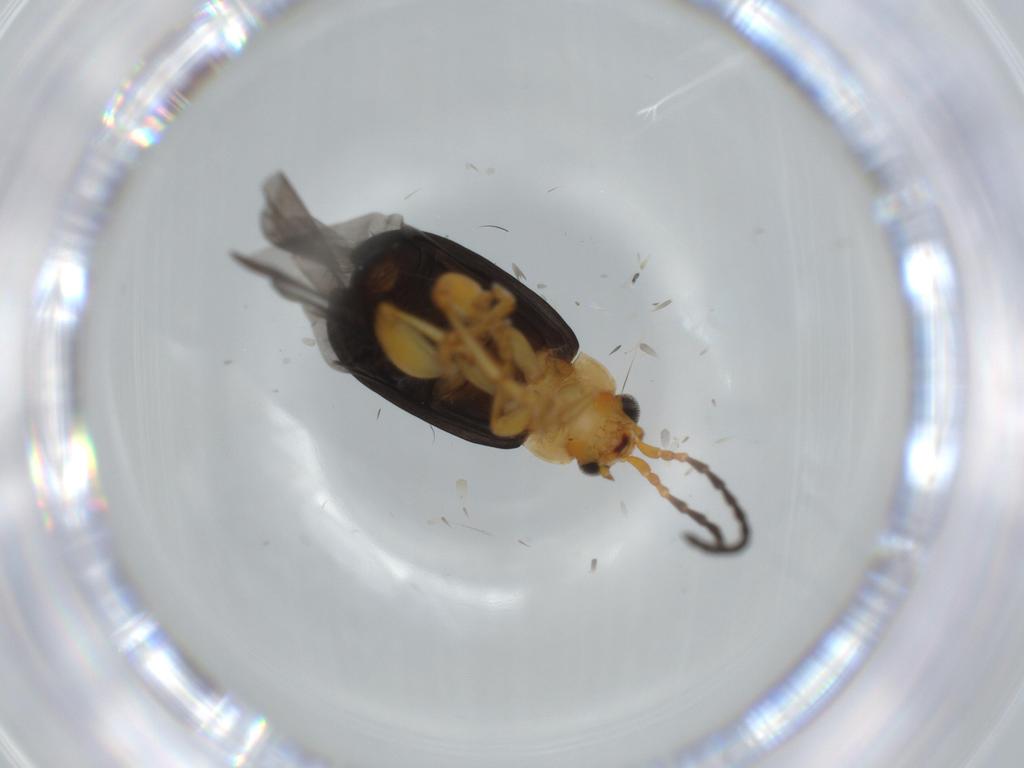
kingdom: Animalia
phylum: Arthropoda
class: Insecta
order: Coleoptera
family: Chrysomelidae
